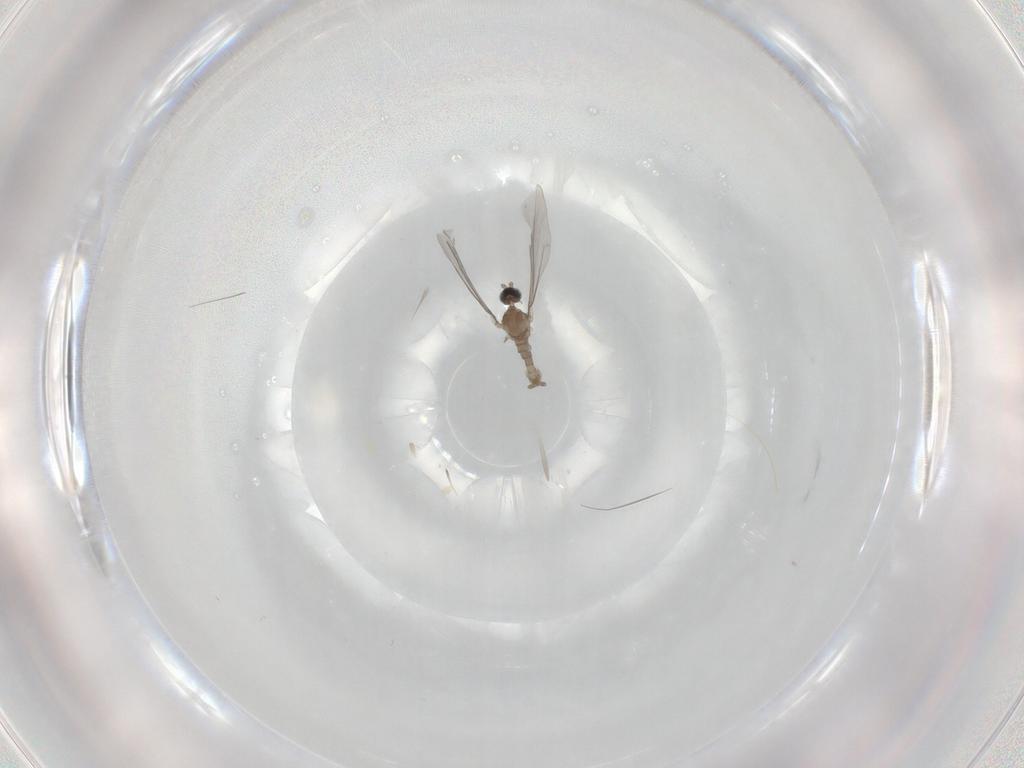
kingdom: Animalia
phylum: Arthropoda
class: Insecta
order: Diptera
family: Cecidomyiidae
